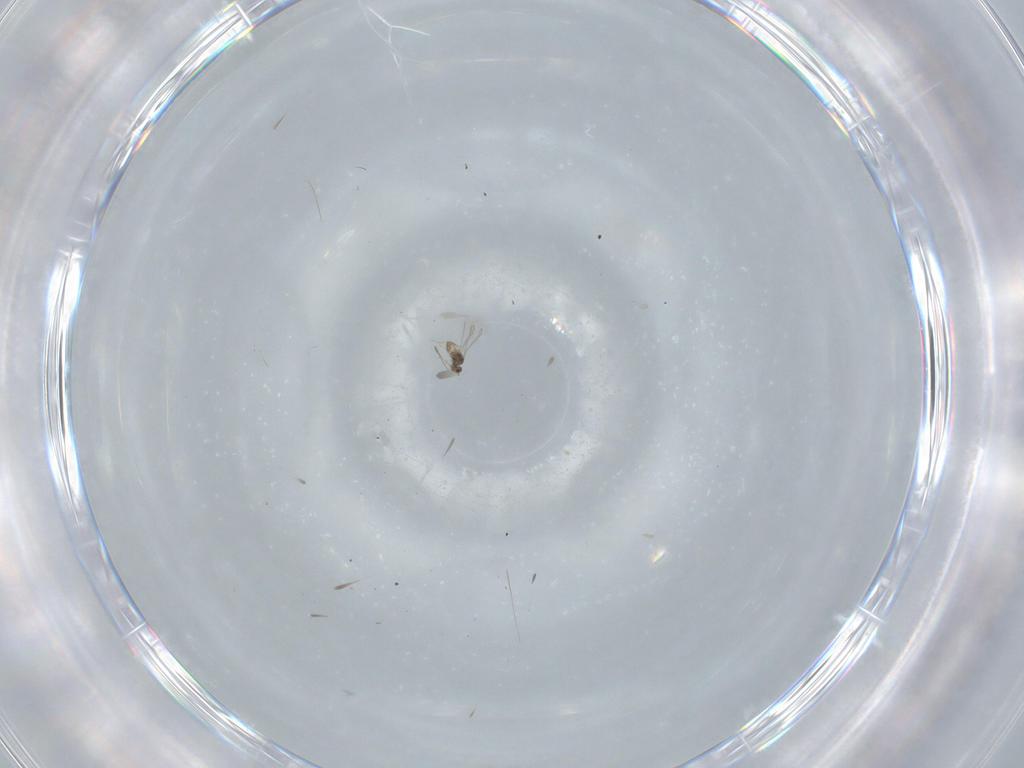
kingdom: Animalia
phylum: Arthropoda
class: Insecta
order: Hymenoptera
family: Mymaridae
